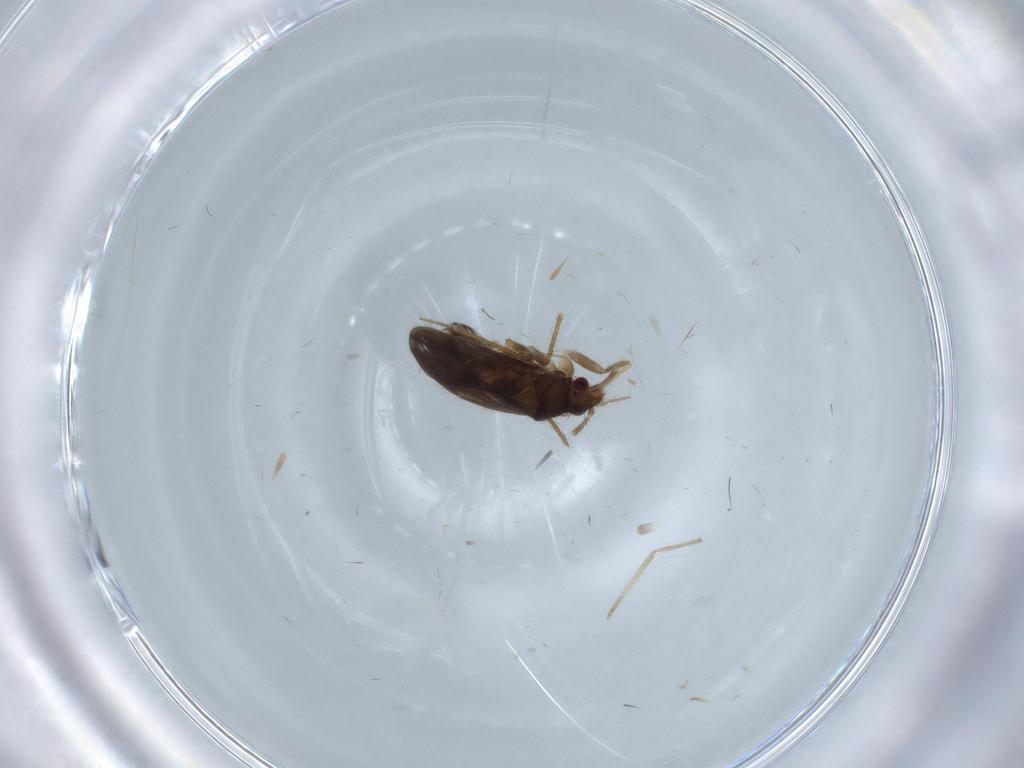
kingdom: Animalia
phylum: Arthropoda
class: Insecta
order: Hemiptera
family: Ceratocombidae
